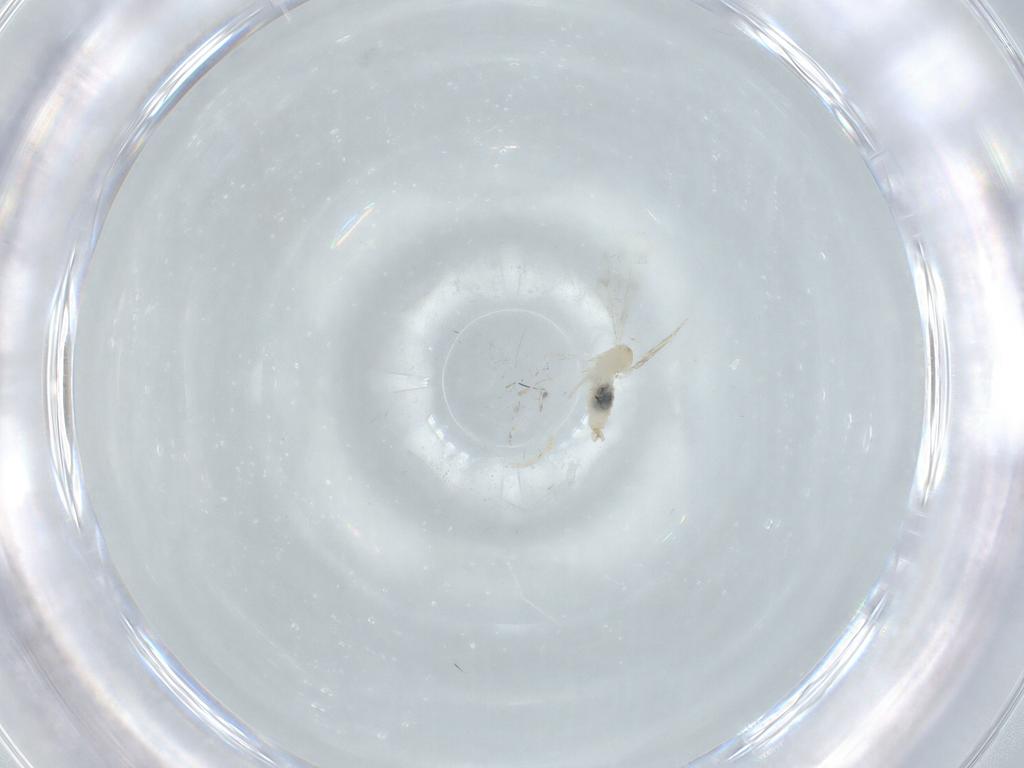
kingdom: Animalia
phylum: Arthropoda
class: Insecta
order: Diptera
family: Cecidomyiidae
